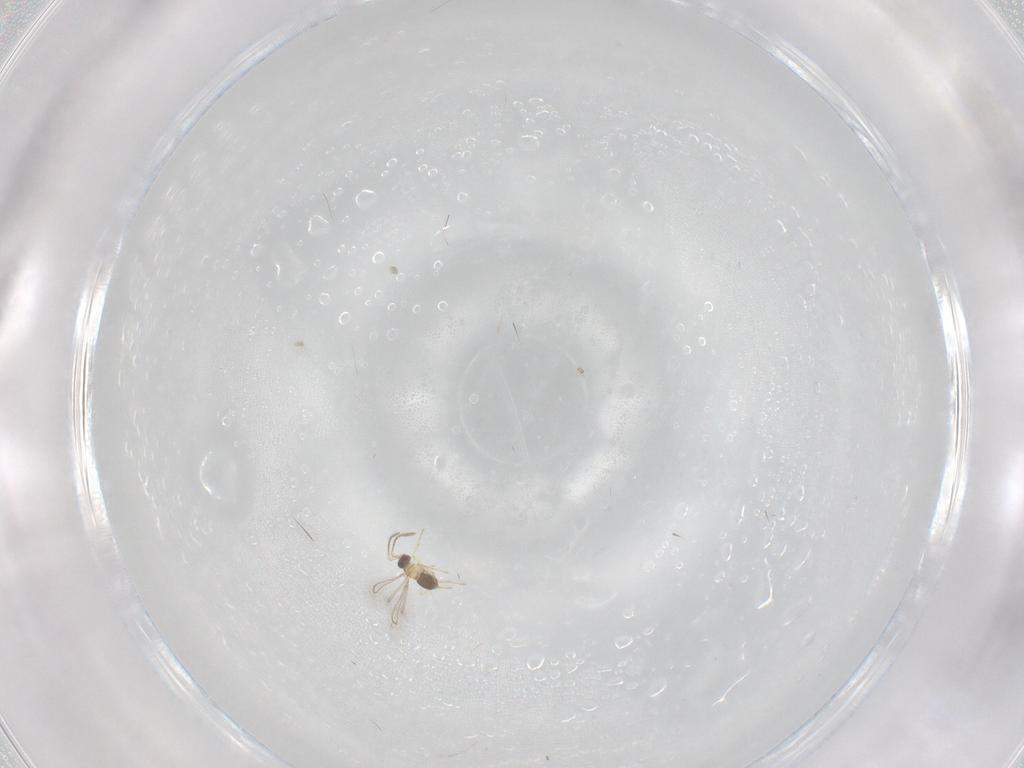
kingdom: Animalia
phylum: Arthropoda
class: Insecta
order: Hymenoptera
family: Mymaridae
